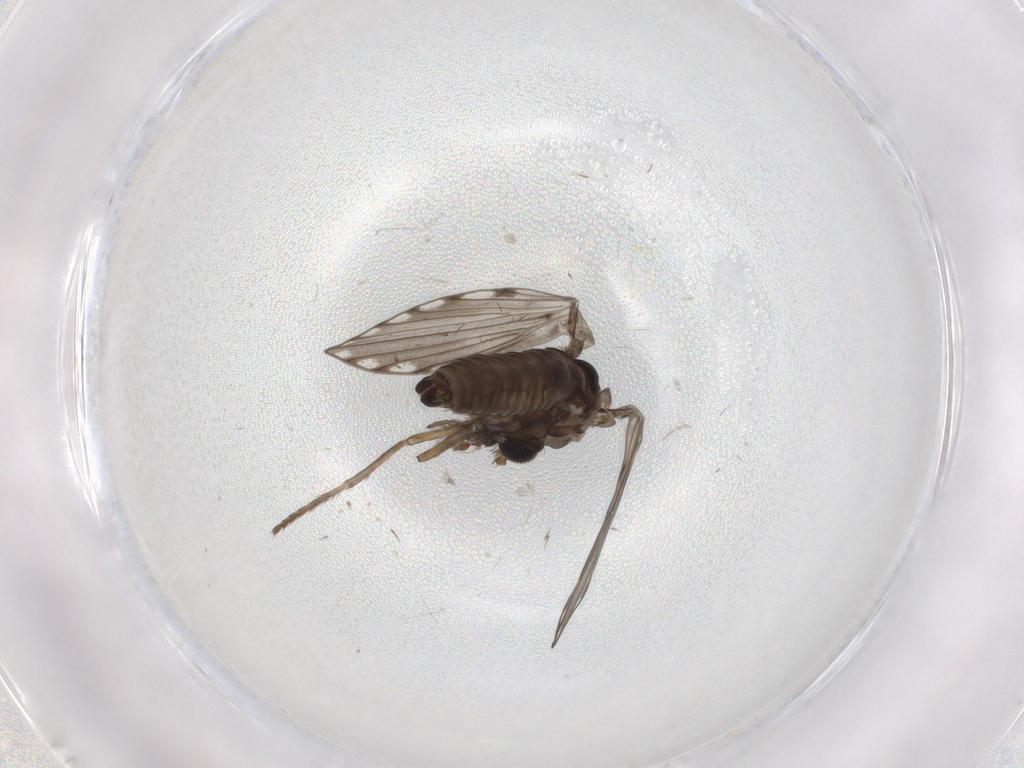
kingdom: Animalia
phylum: Arthropoda
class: Insecta
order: Diptera
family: Cecidomyiidae
